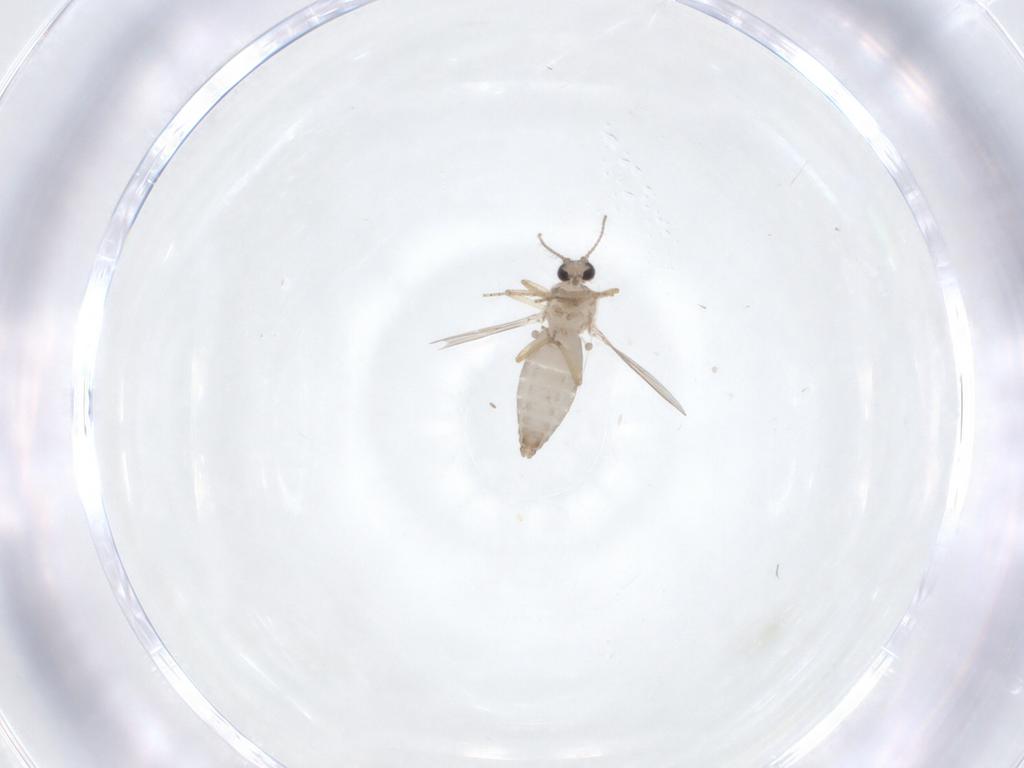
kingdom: Animalia
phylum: Arthropoda
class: Insecta
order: Diptera
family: Ceratopogonidae
